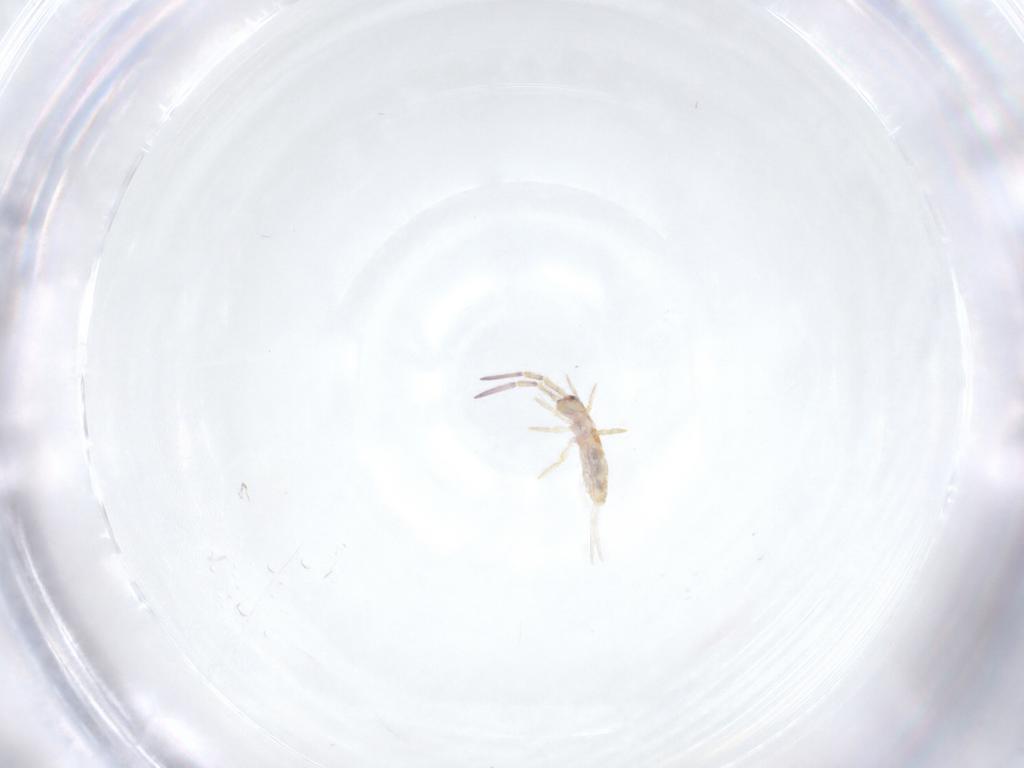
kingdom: Animalia
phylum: Arthropoda
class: Collembola
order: Entomobryomorpha
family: Entomobryidae
